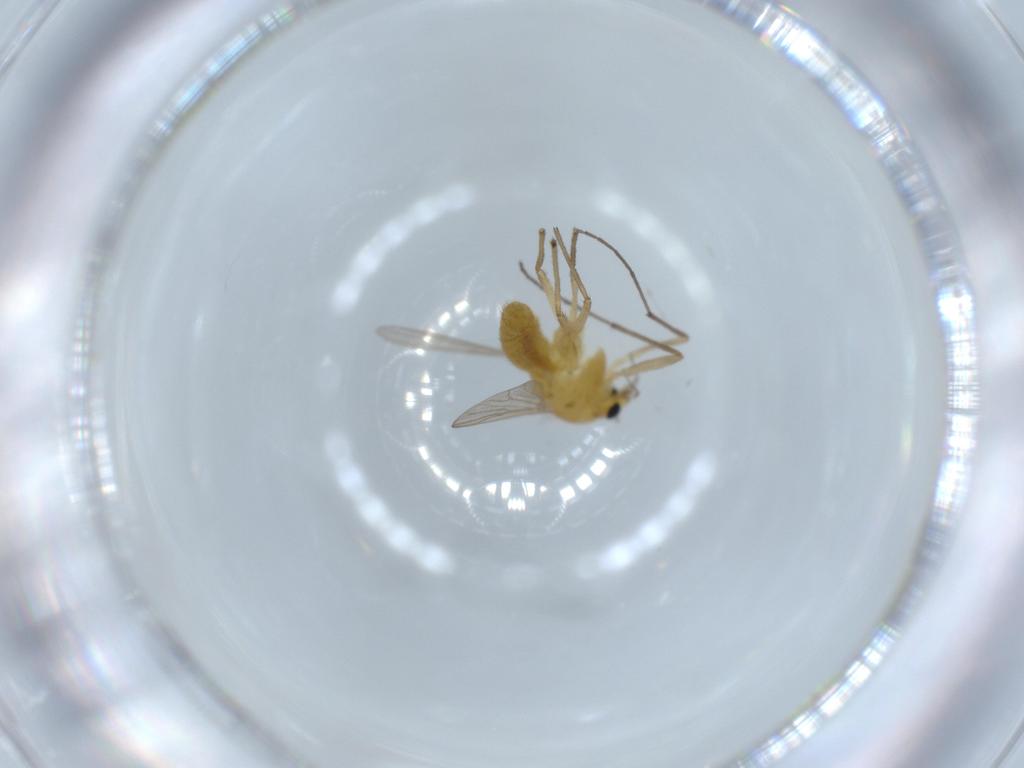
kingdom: Animalia
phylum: Arthropoda
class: Insecta
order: Diptera
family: Chironomidae
